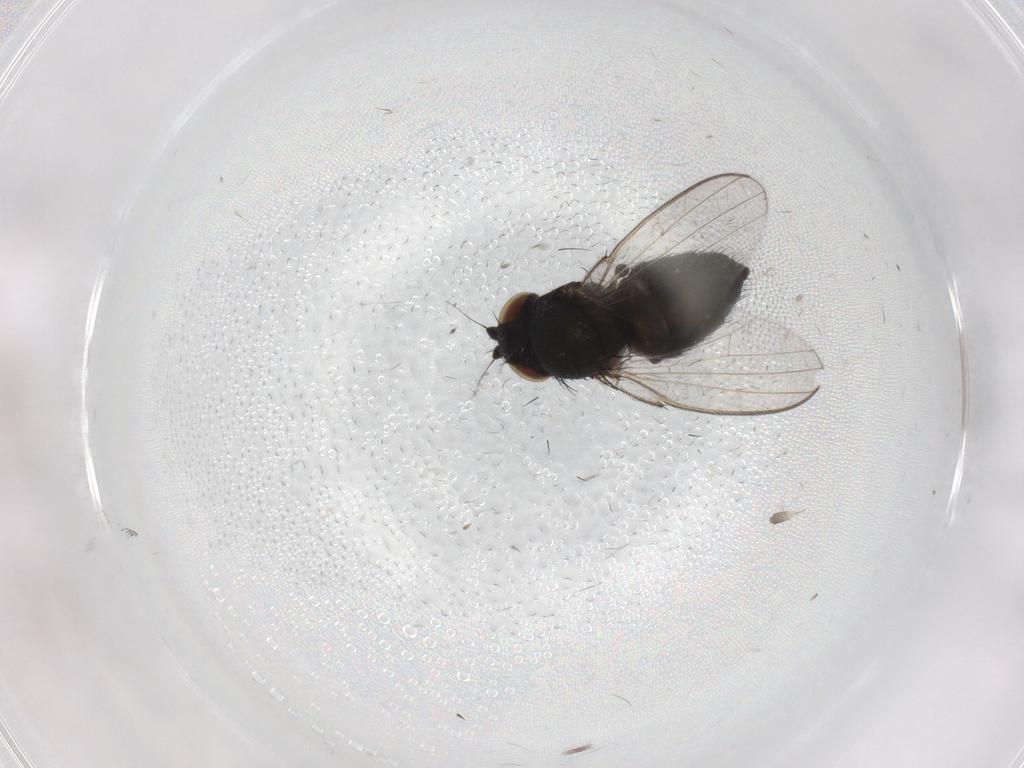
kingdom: Animalia
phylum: Arthropoda
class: Insecta
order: Diptera
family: Milichiidae
